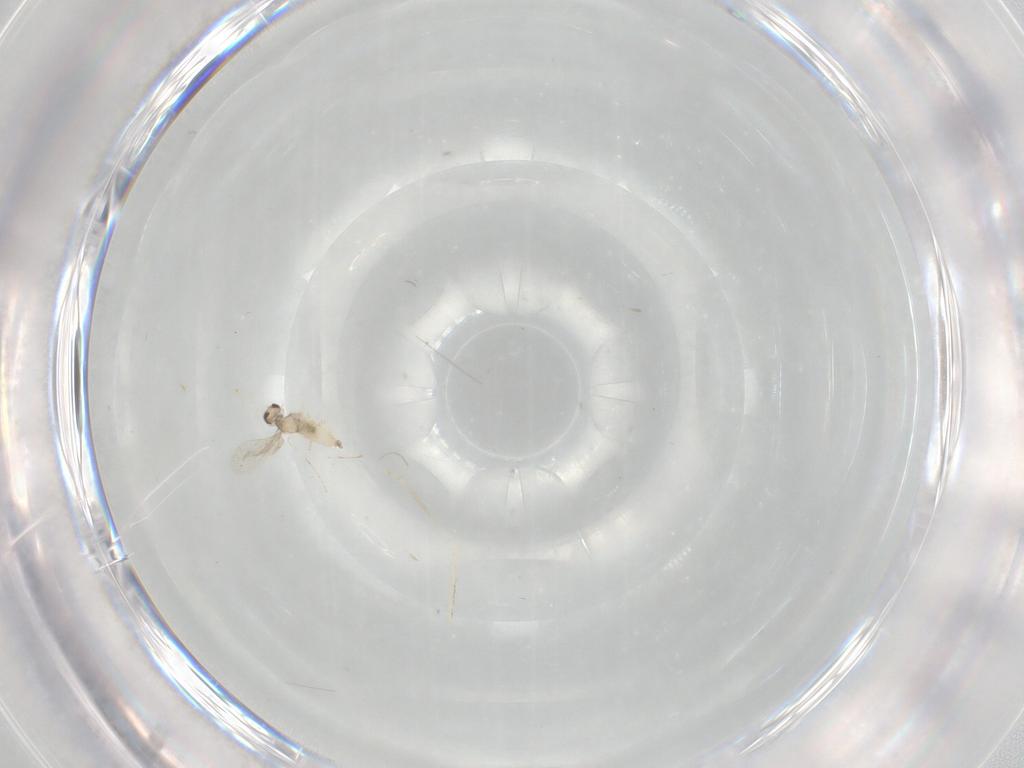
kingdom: Animalia
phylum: Arthropoda
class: Insecta
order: Diptera
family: Cecidomyiidae
